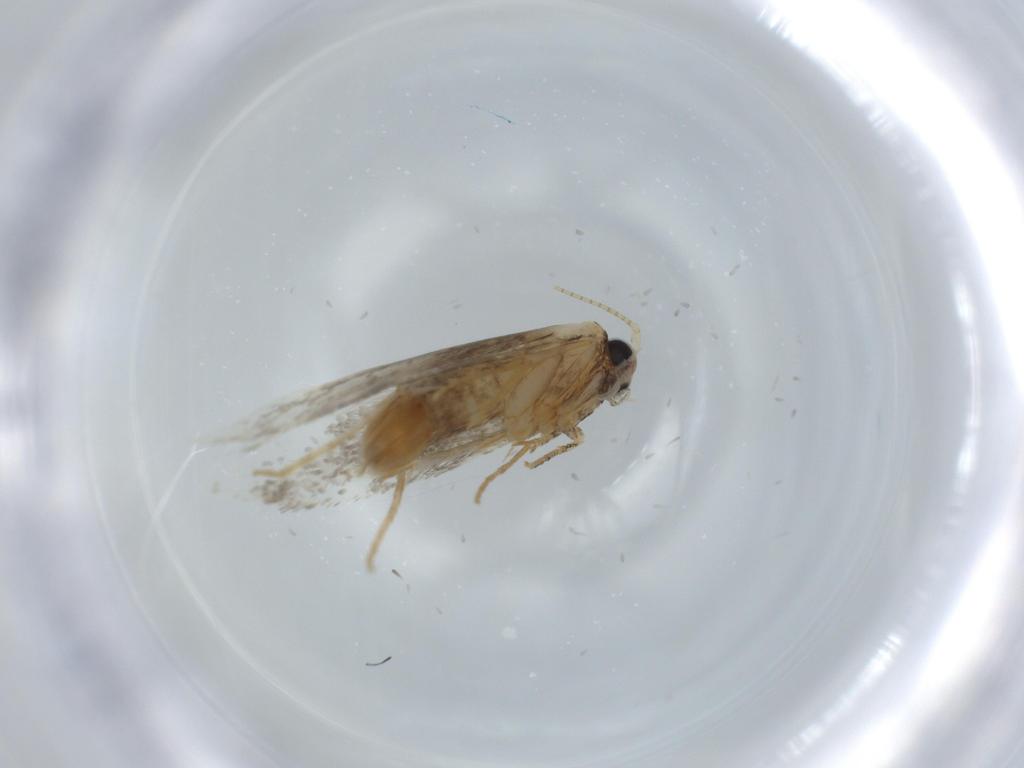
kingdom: Animalia
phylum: Arthropoda
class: Insecta
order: Lepidoptera
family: Tineidae
